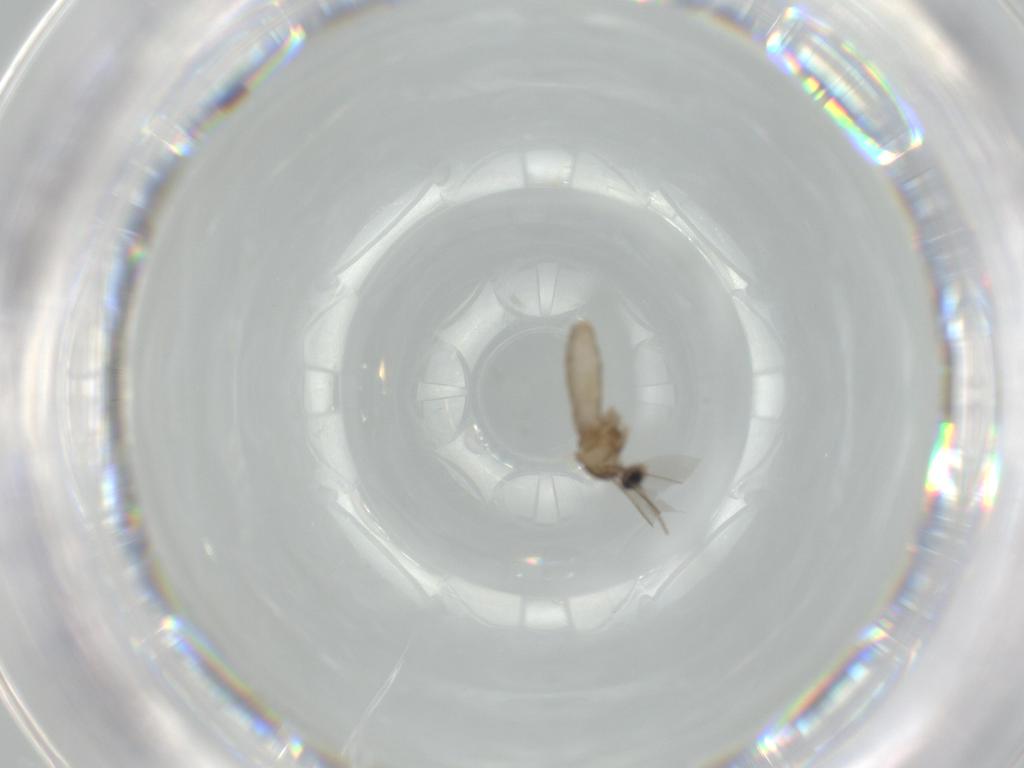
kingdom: Animalia
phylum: Arthropoda
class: Insecta
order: Diptera
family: Cecidomyiidae
